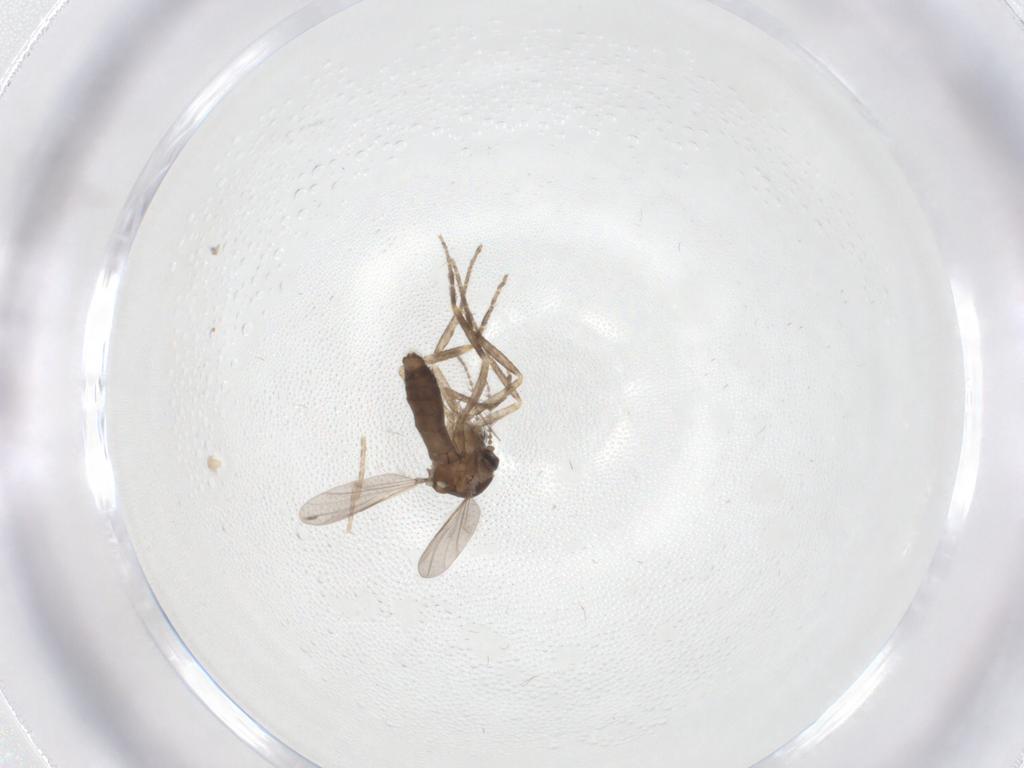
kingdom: Animalia
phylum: Arthropoda
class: Insecta
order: Diptera
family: Ceratopogonidae
